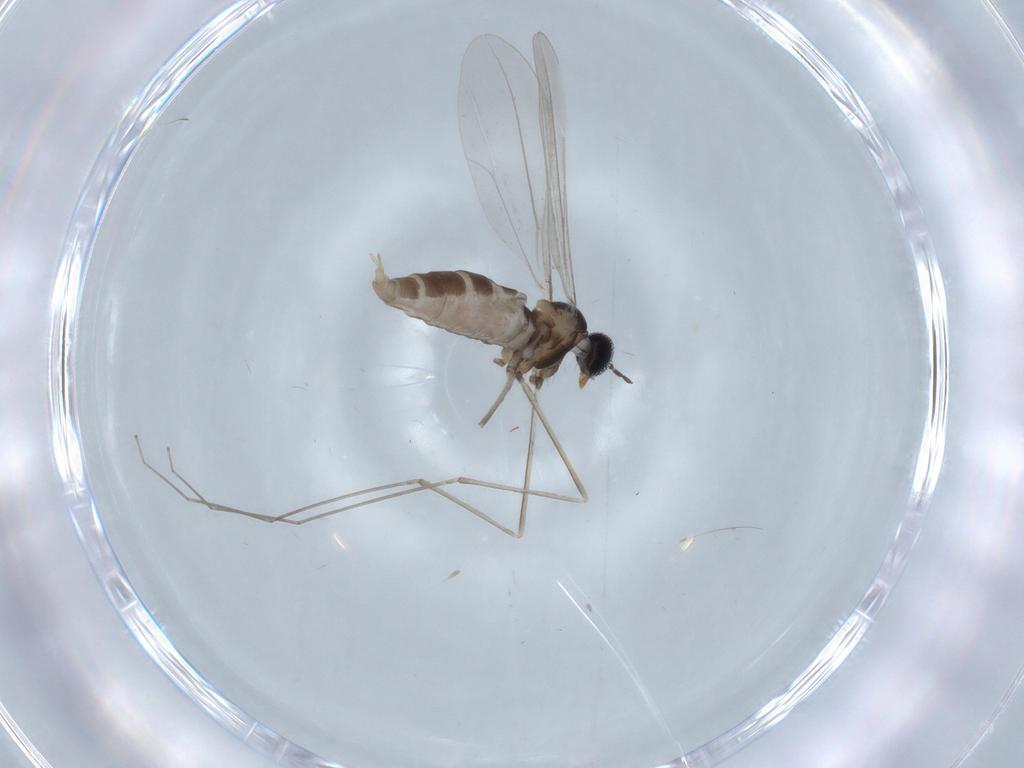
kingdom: Animalia
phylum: Arthropoda
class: Insecta
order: Diptera
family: Cecidomyiidae
